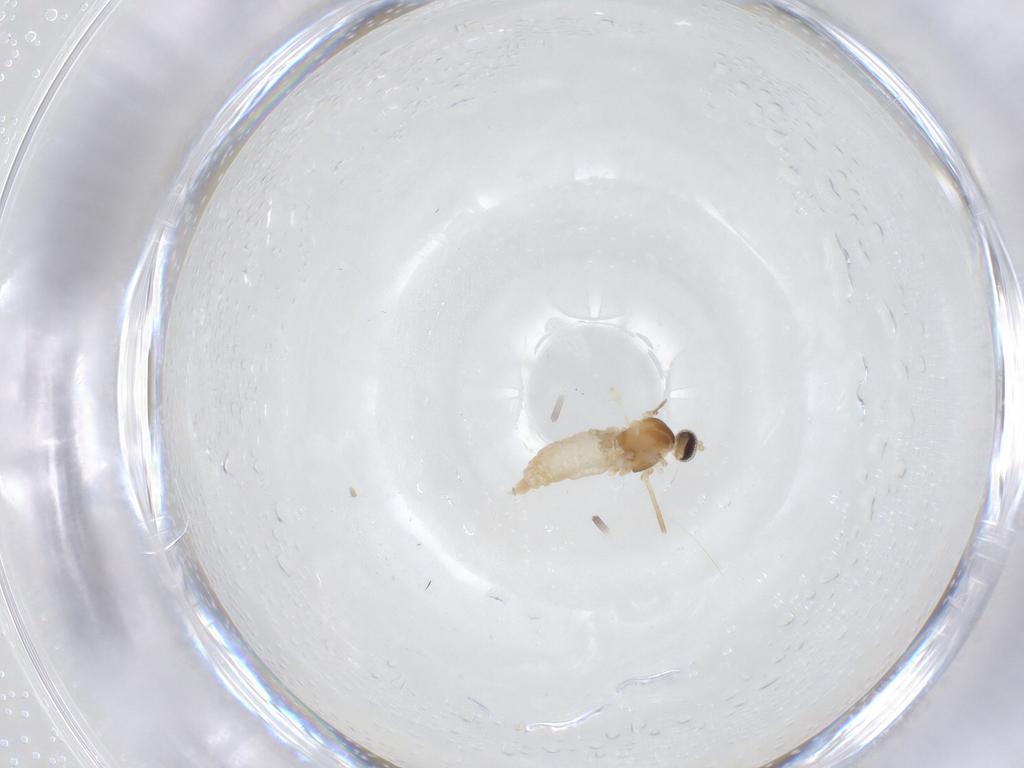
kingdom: Animalia
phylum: Arthropoda
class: Insecta
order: Diptera
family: Cecidomyiidae
